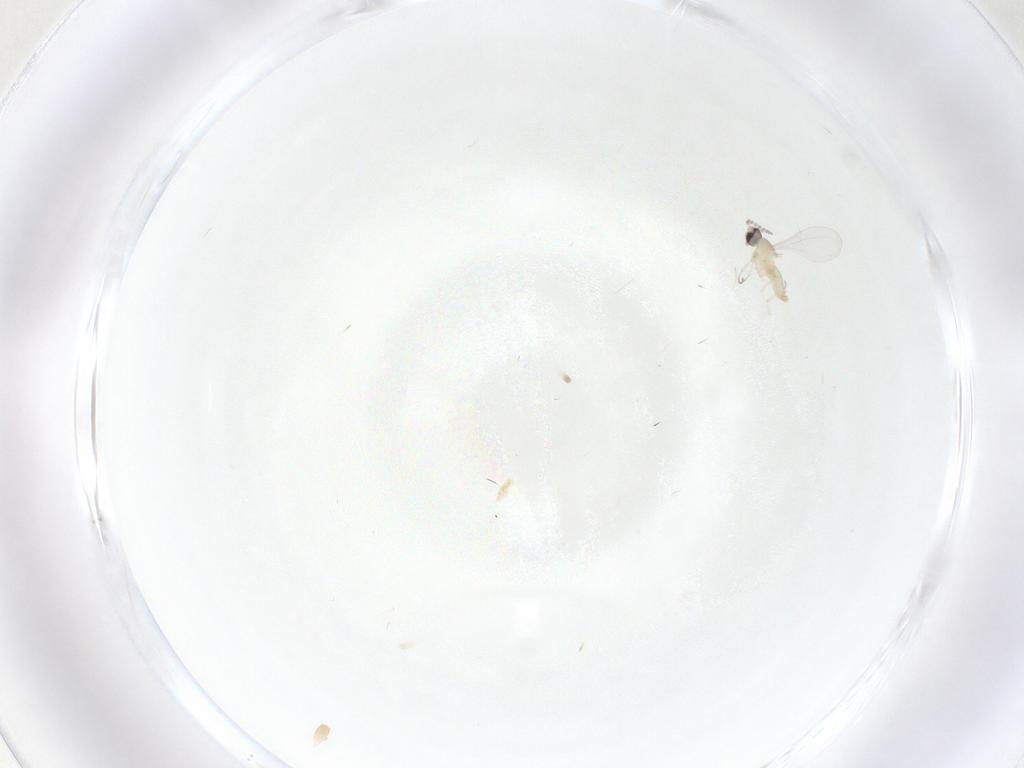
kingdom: Animalia
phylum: Arthropoda
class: Insecta
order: Diptera
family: Cecidomyiidae
